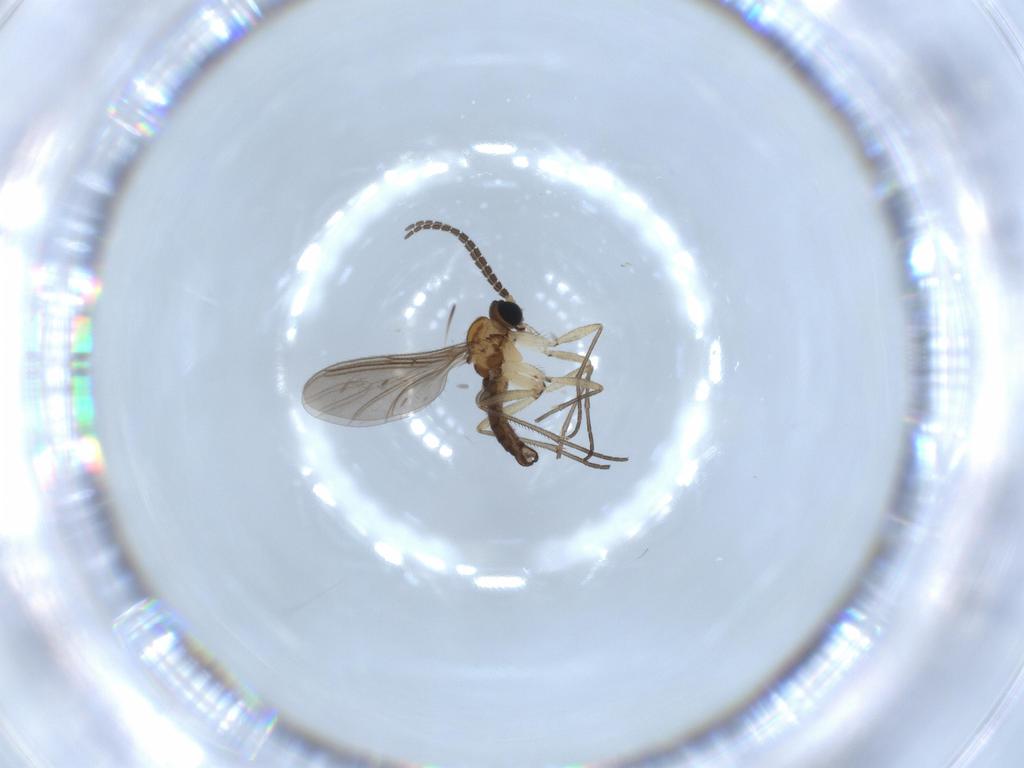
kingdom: Animalia
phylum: Arthropoda
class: Insecta
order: Diptera
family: Sciaridae
